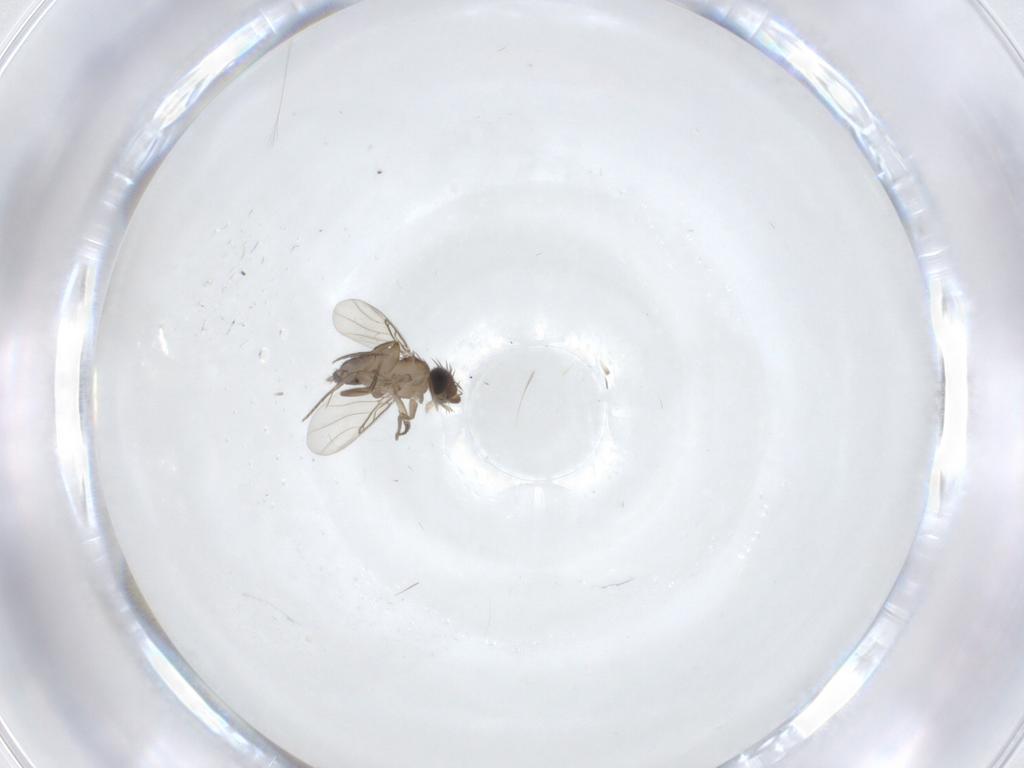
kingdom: Animalia
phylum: Arthropoda
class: Insecta
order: Diptera
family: Phoridae
